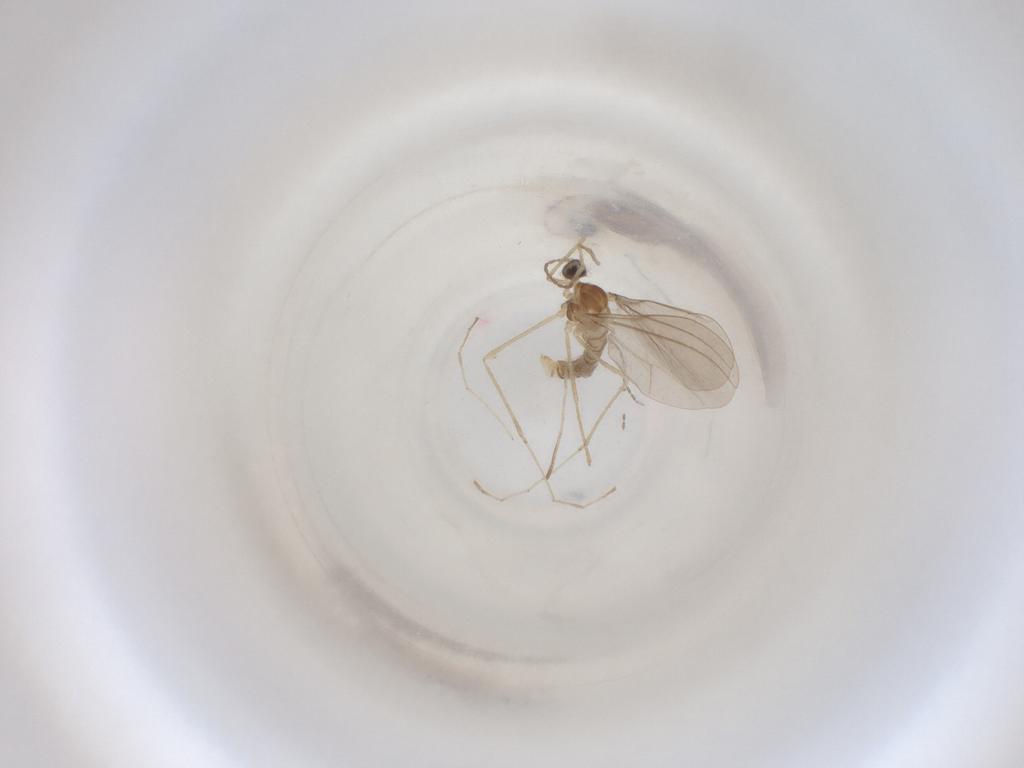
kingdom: Animalia
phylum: Arthropoda
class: Insecta
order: Diptera
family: Cecidomyiidae
